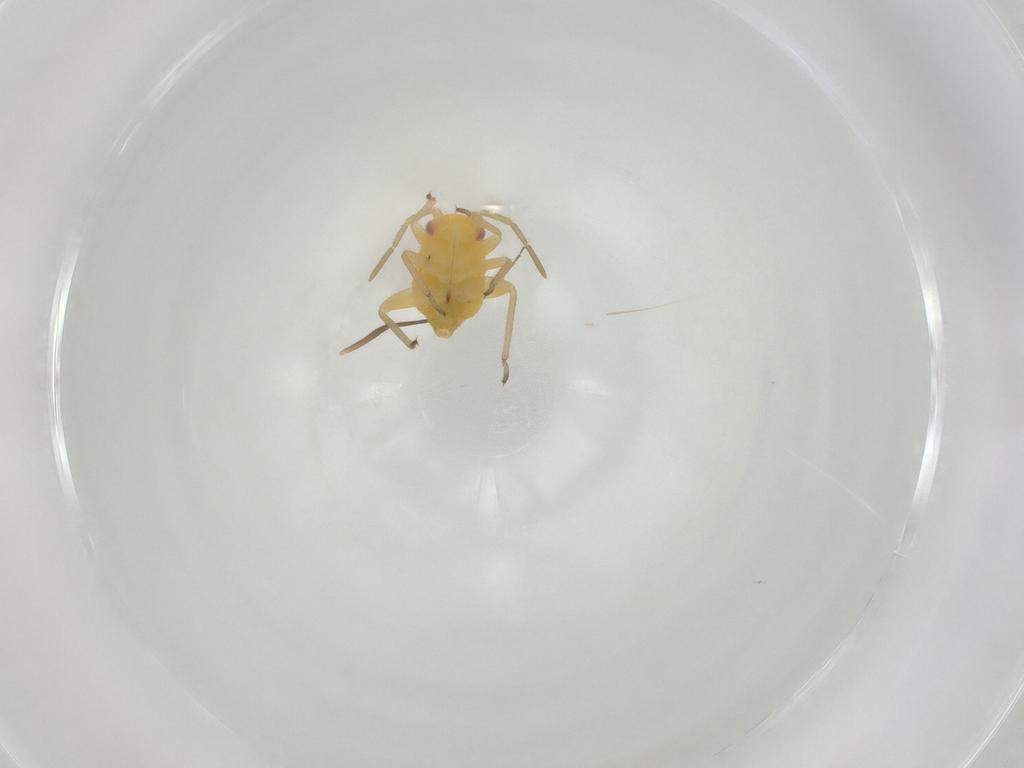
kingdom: Animalia
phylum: Arthropoda
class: Insecta
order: Hemiptera
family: Miridae
